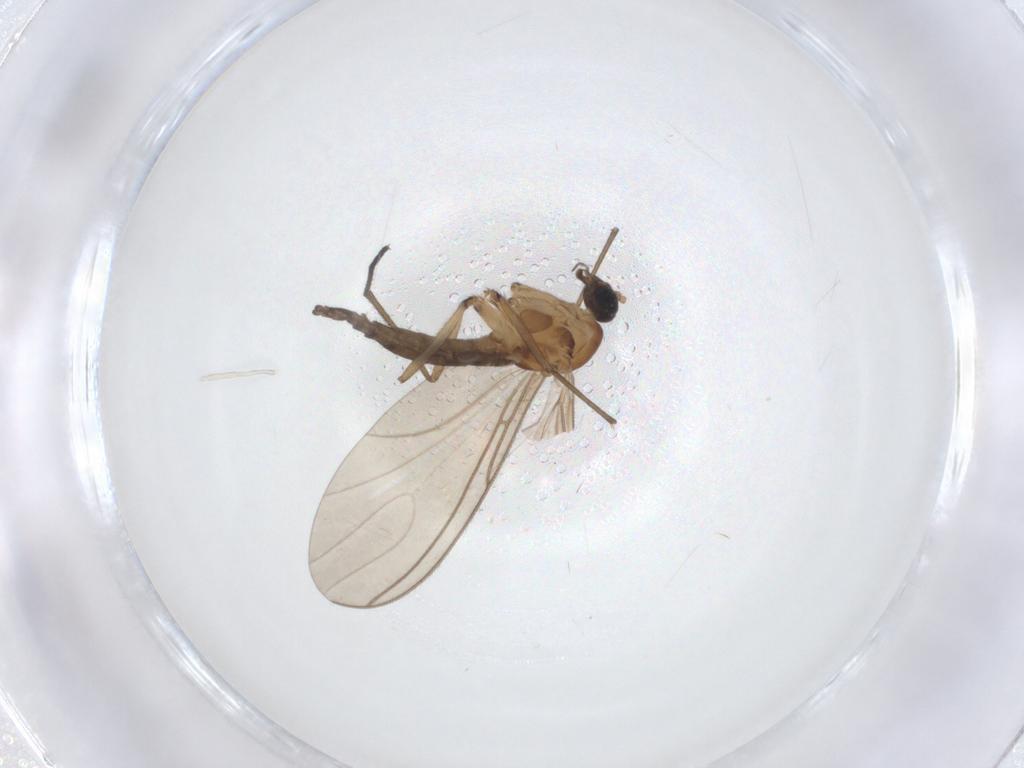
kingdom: Animalia
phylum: Arthropoda
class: Insecta
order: Diptera
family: Sciaridae
